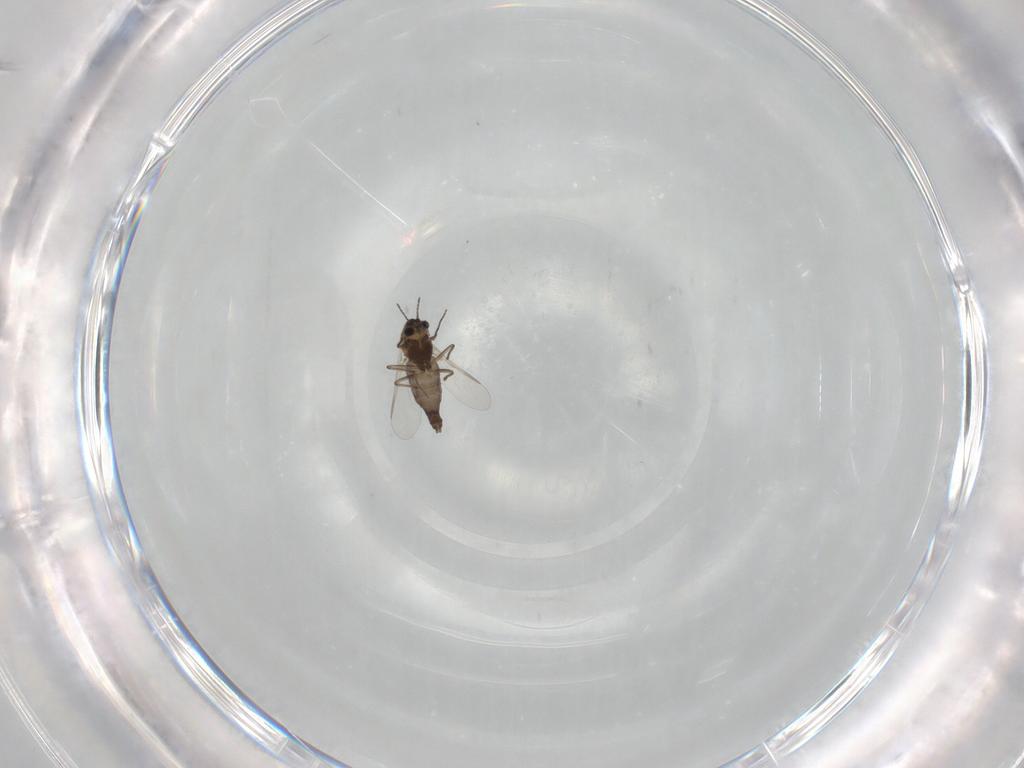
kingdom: Animalia
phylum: Arthropoda
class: Insecta
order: Diptera
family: Chironomidae
